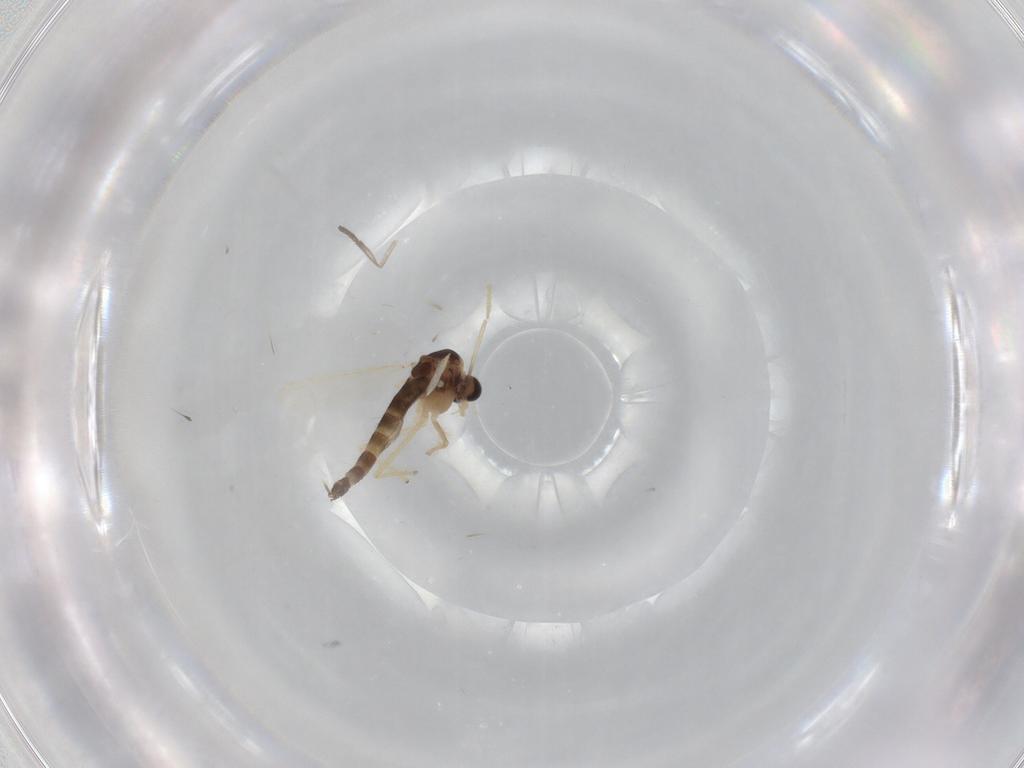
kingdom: Animalia
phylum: Arthropoda
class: Insecta
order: Diptera
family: Chironomidae
